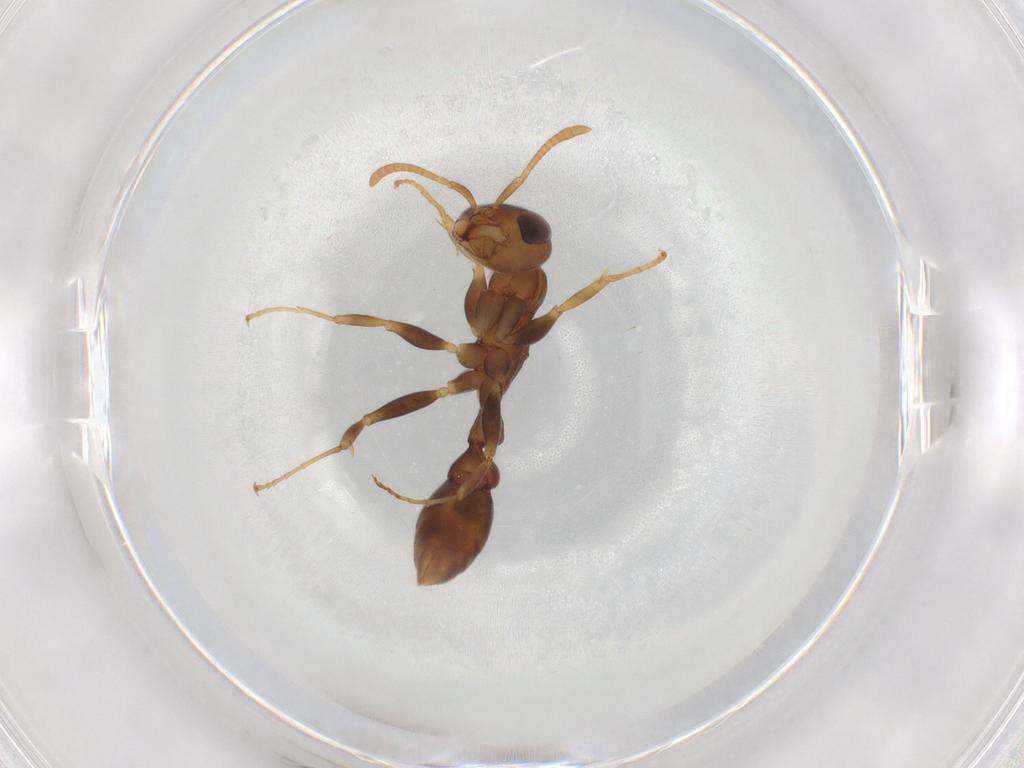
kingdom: Animalia
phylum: Arthropoda
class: Insecta
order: Hymenoptera
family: Formicidae
